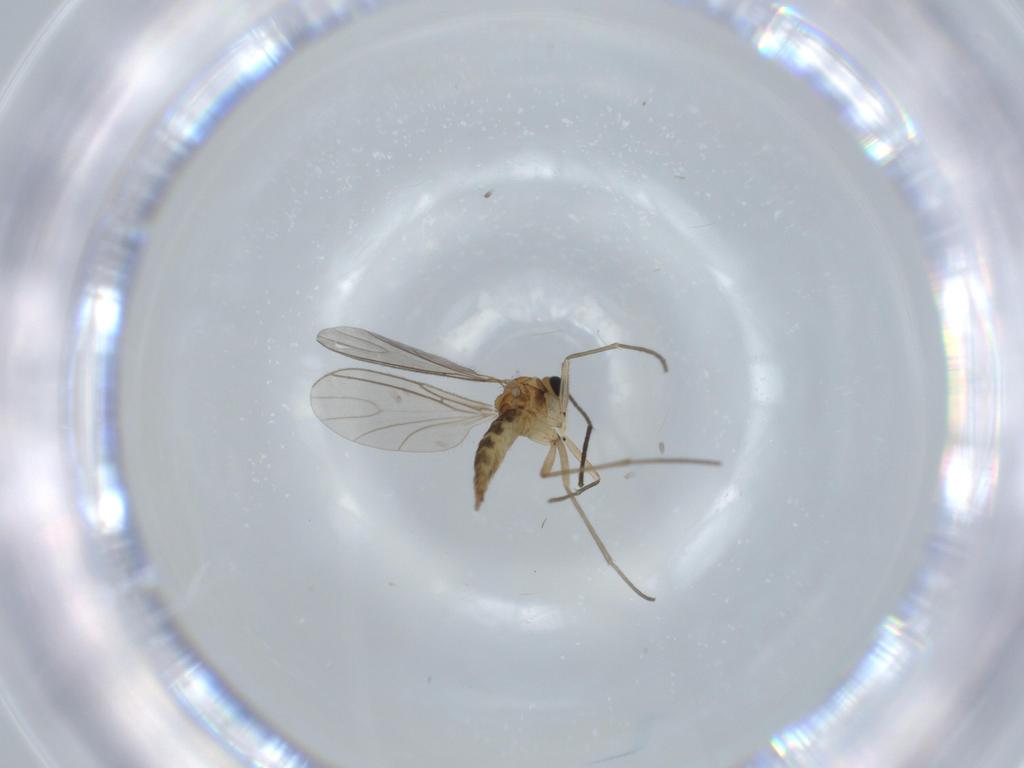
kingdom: Animalia
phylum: Arthropoda
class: Insecta
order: Diptera
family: Cecidomyiidae
